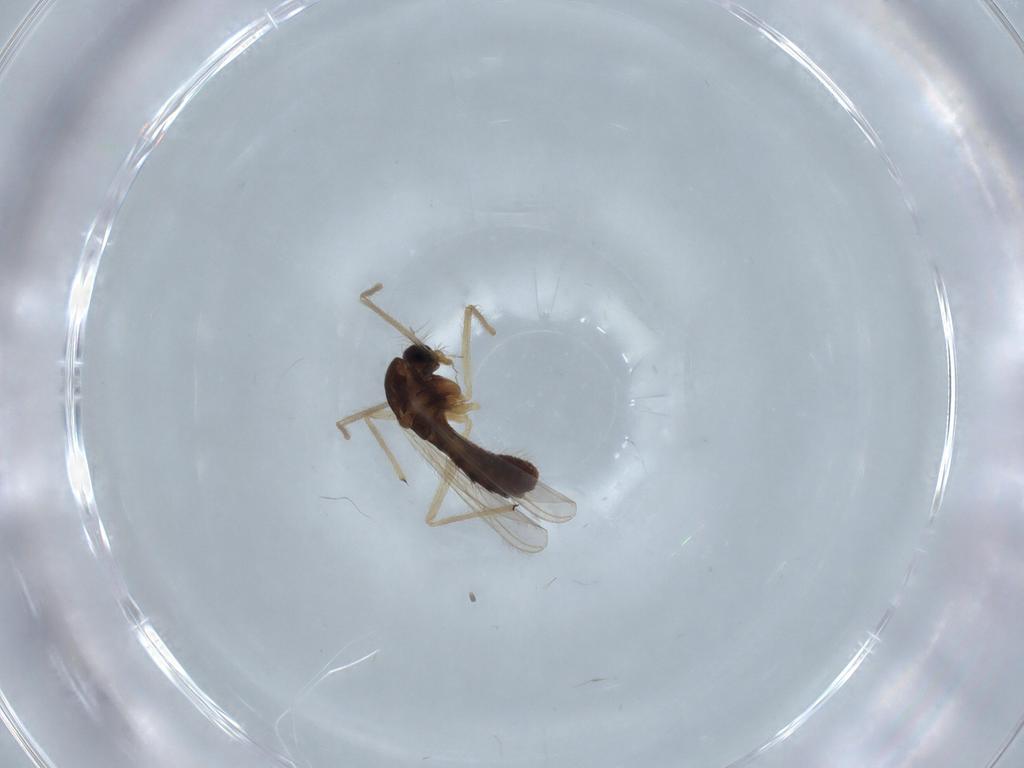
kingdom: Animalia
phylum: Arthropoda
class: Insecta
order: Diptera
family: Chironomidae
